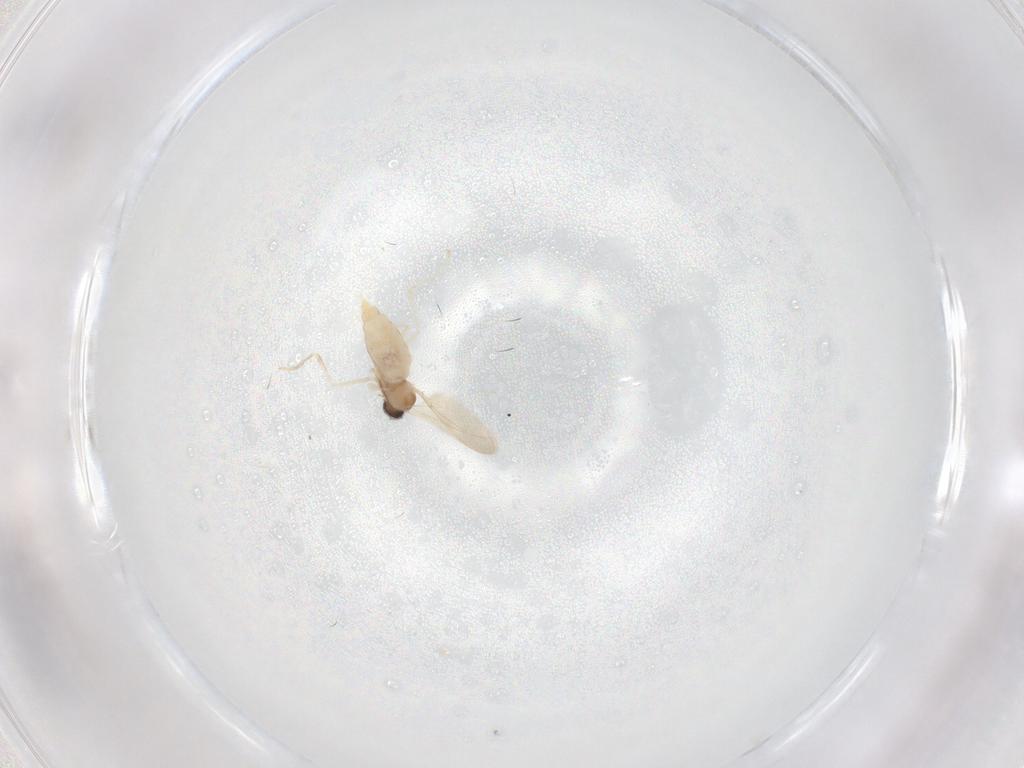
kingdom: Animalia
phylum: Arthropoda
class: Insecta
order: Diptera
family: Cecidomyiidae
